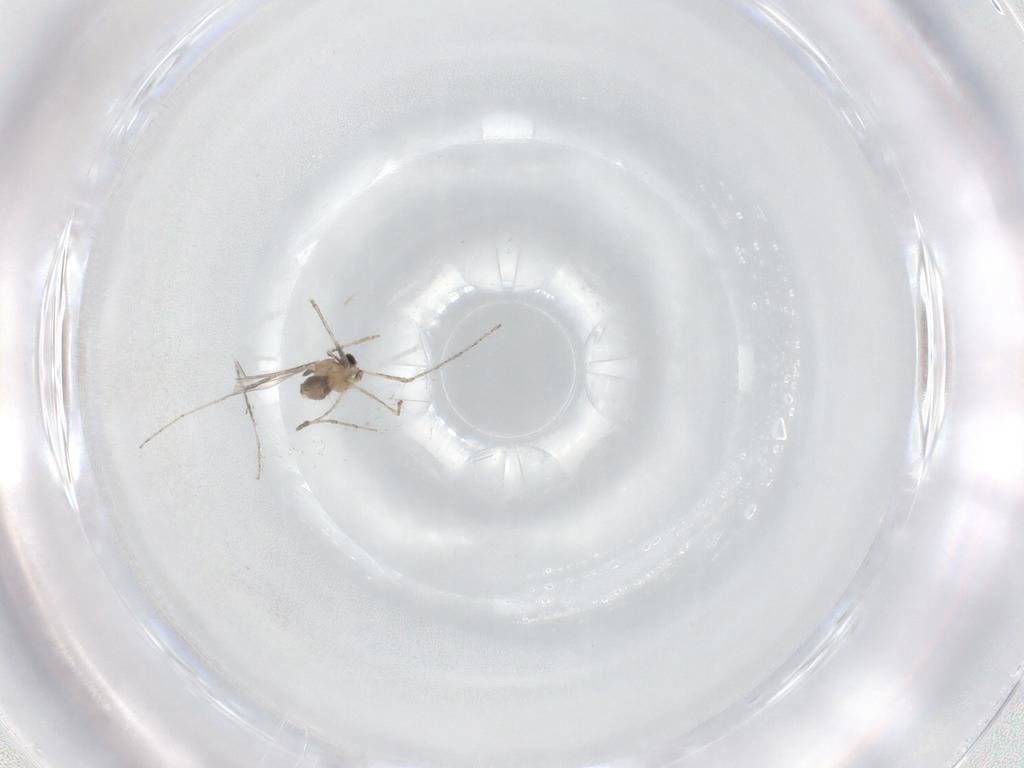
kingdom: Animalia
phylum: Arthropoda
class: Insecta
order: Diptera
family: Cecidomyiidae
